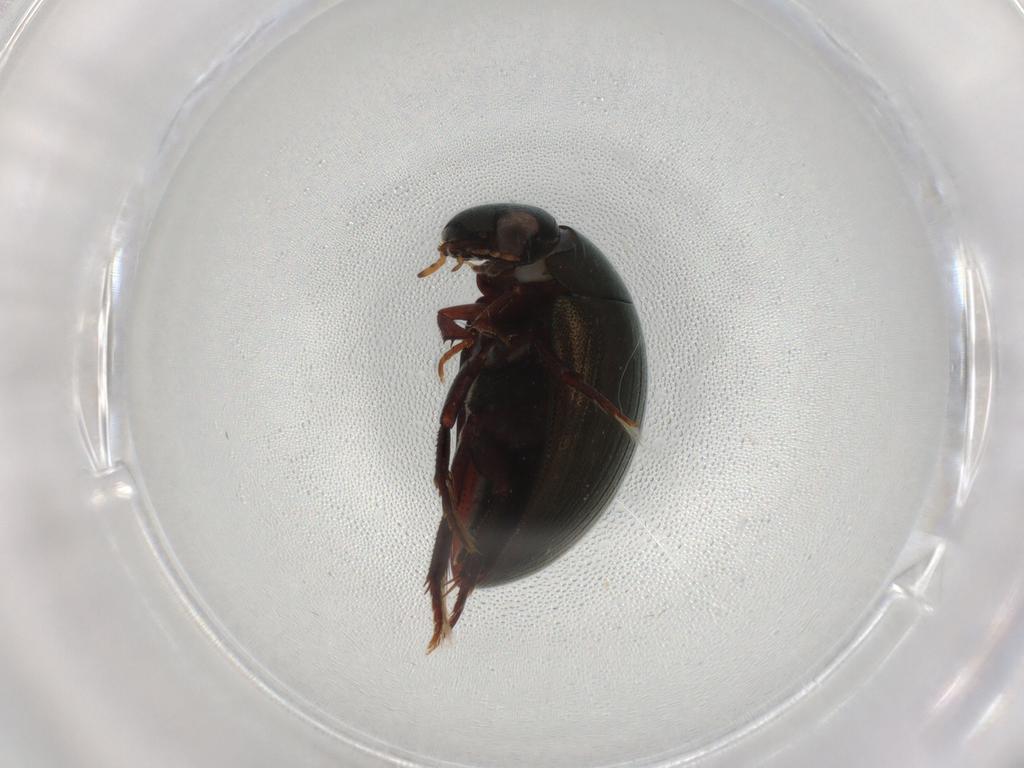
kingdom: Animalia
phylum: Arthropoda
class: Insecta
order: Coleoptera
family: Staphylinidae
